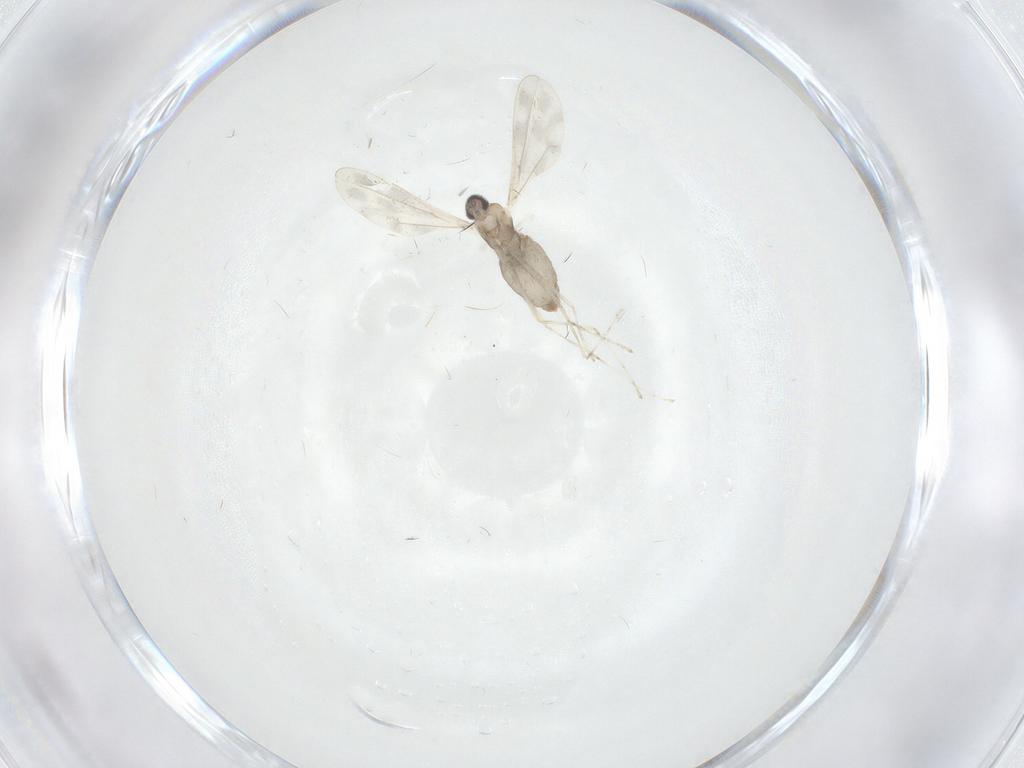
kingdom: Animalia
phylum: Arthropoda
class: Insecta
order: Diptera
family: Cecidomyiidae
